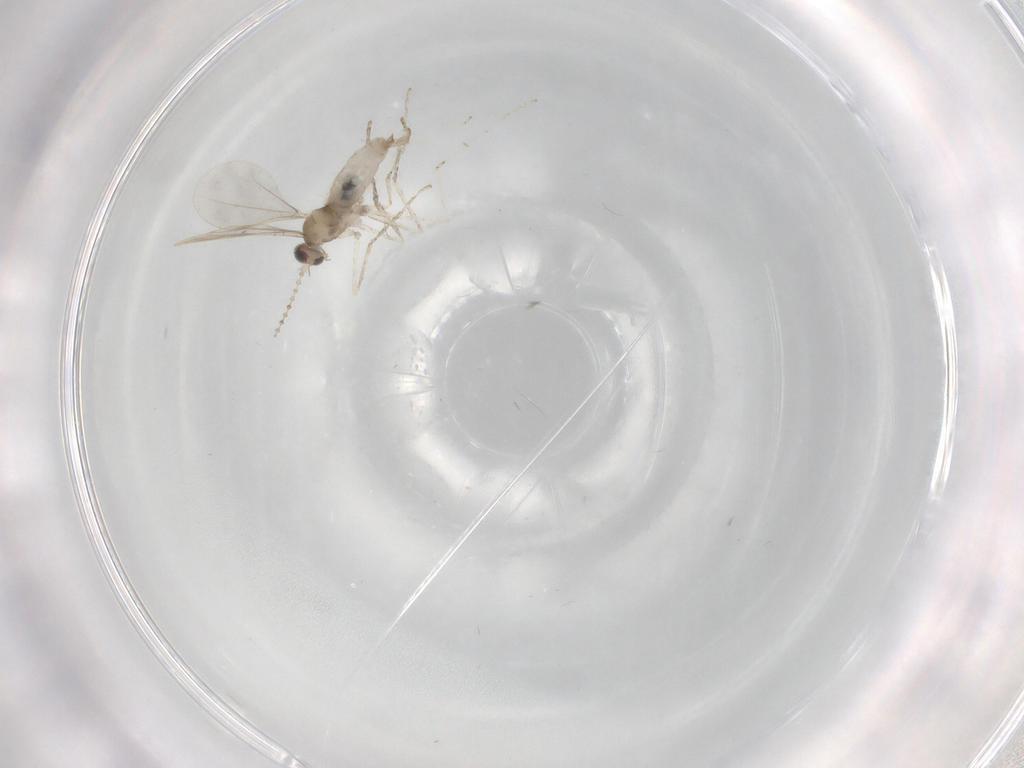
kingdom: Animalia
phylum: Arthropoda
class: Insecta
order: Diptera
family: Cecidomyiidae
